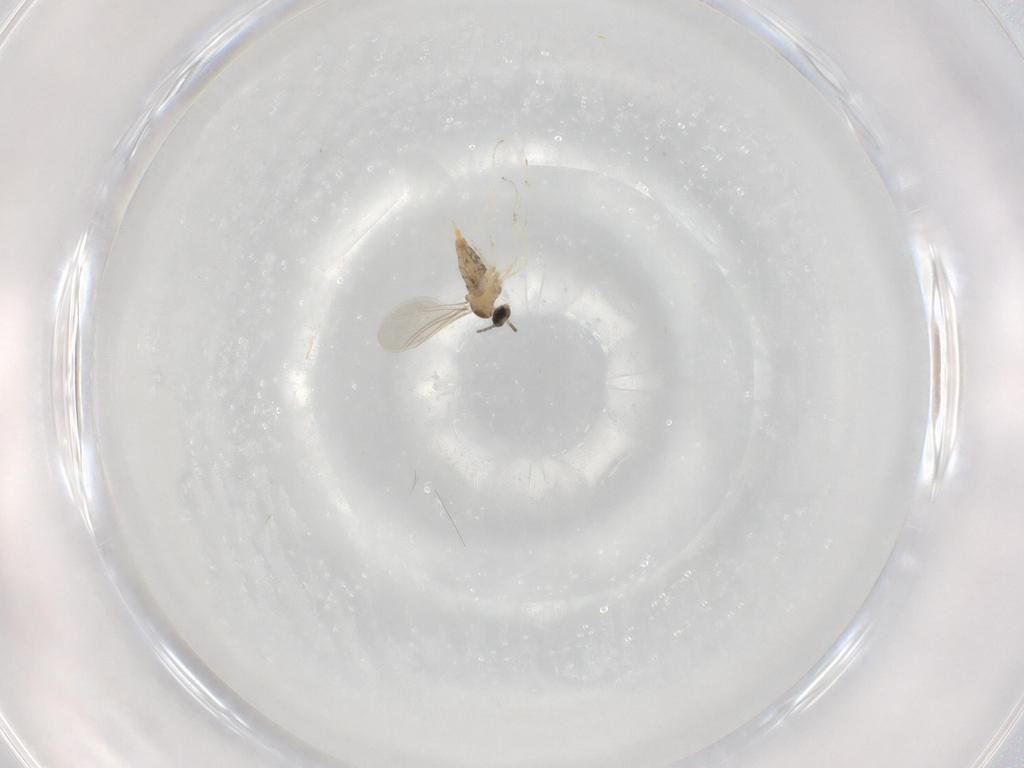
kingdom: Animalia
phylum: Arthropoda
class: Insecta
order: Diptera
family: Cecidomyiidae
